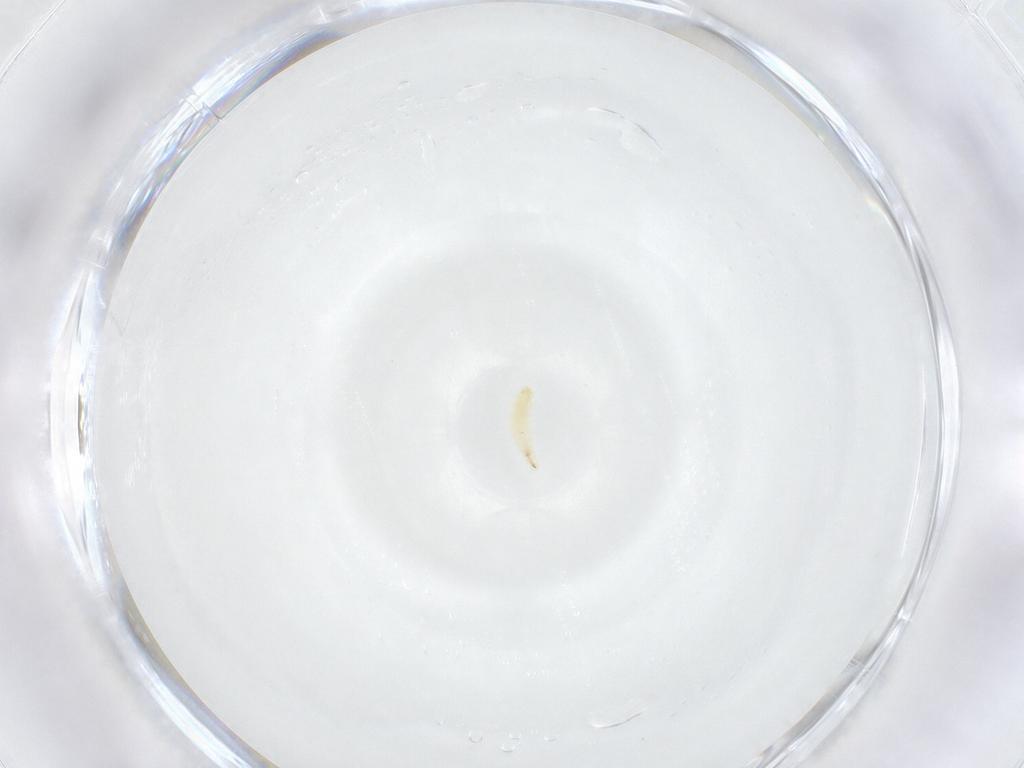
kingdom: Animalia
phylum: Arthropoda
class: Insecta
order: Diptera
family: Sarcophagidae
